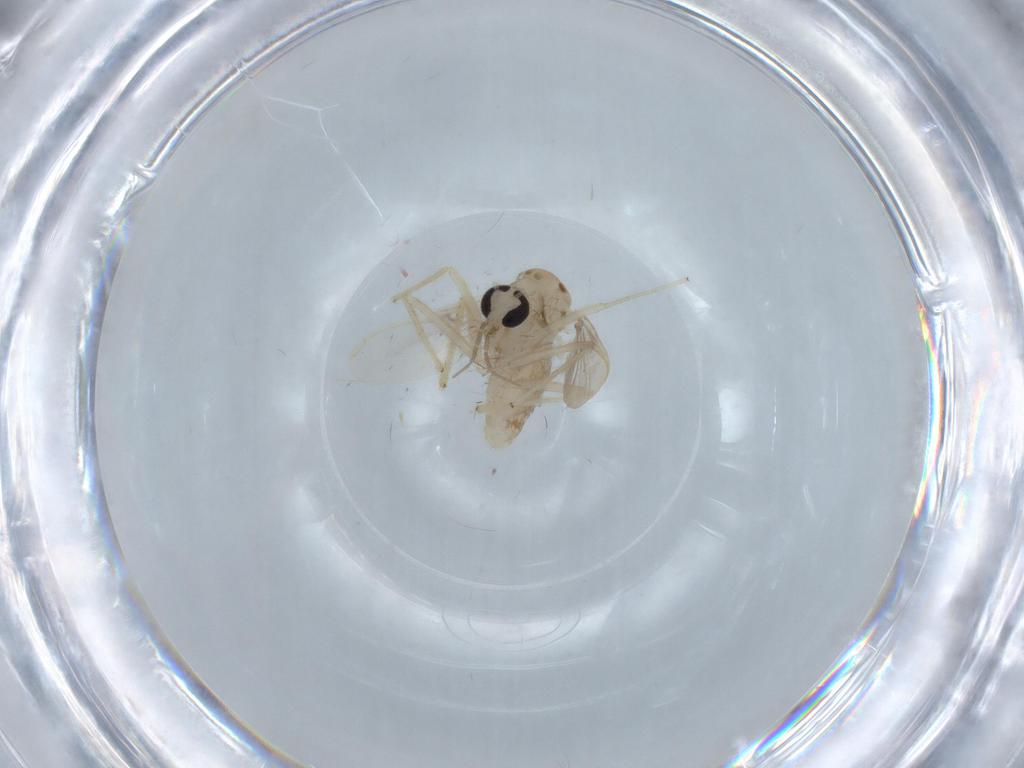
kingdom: Animalia
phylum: Arthropoda
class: Insecta
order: Diptera
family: Chironomidae
